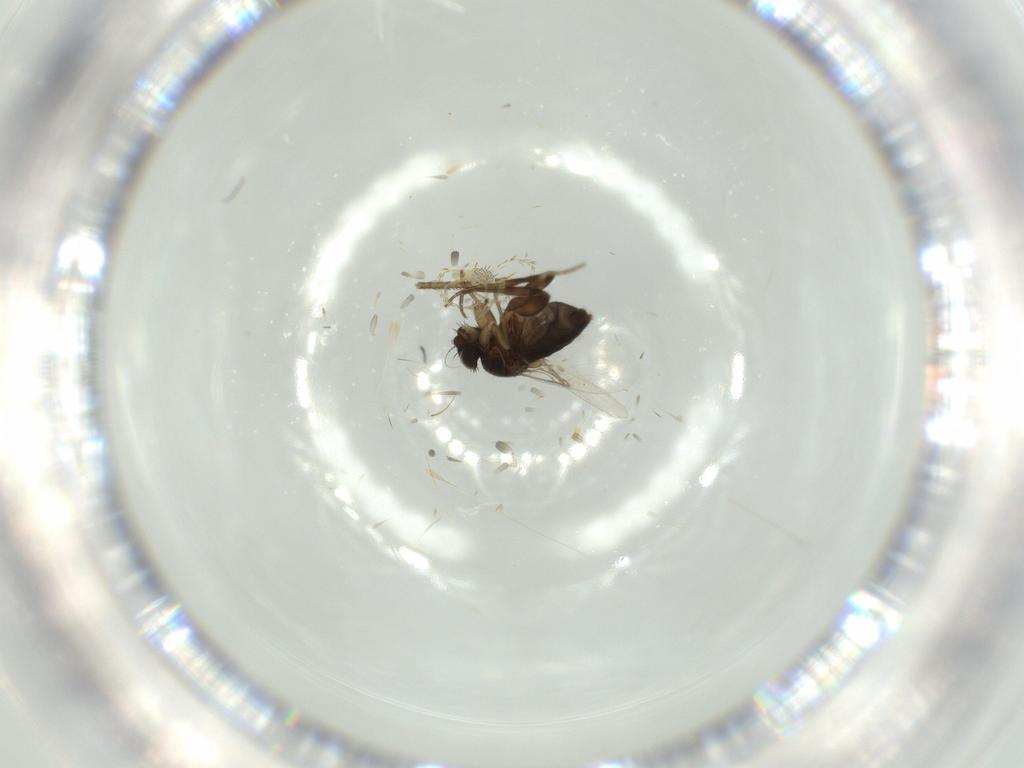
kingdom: Animalia
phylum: Arthropoda
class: Insecta
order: Diptera
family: Phoridae
